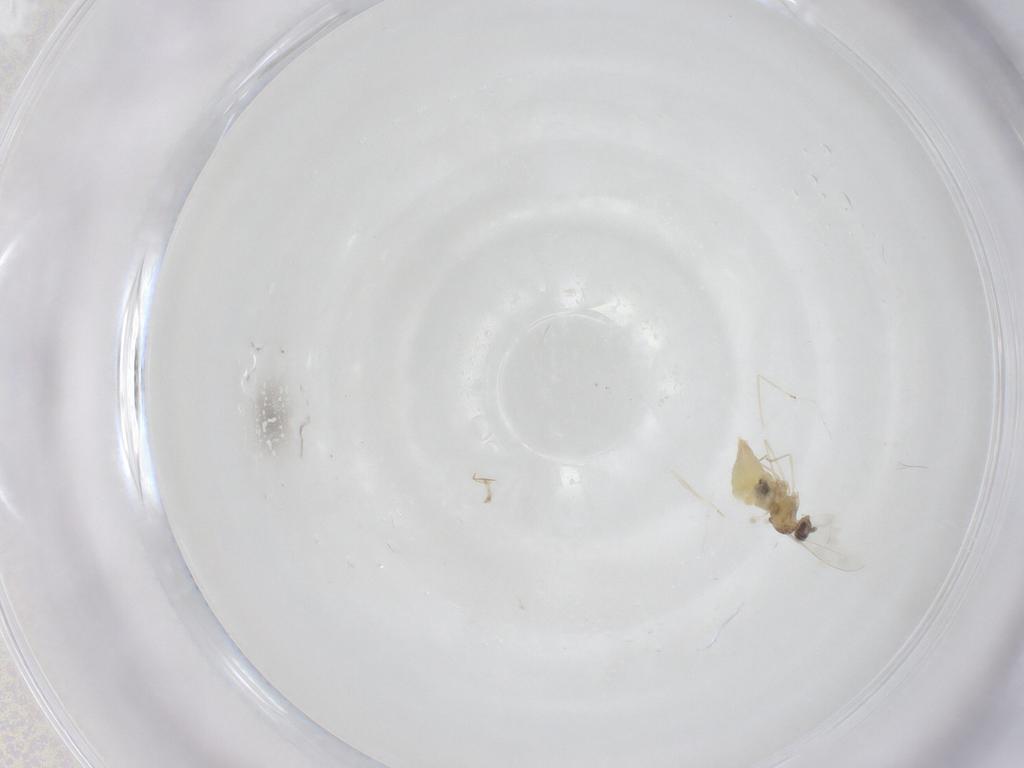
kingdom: Animalia
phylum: Arthropoda
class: Insecta
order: Diptera
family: Cecidomyiidae
